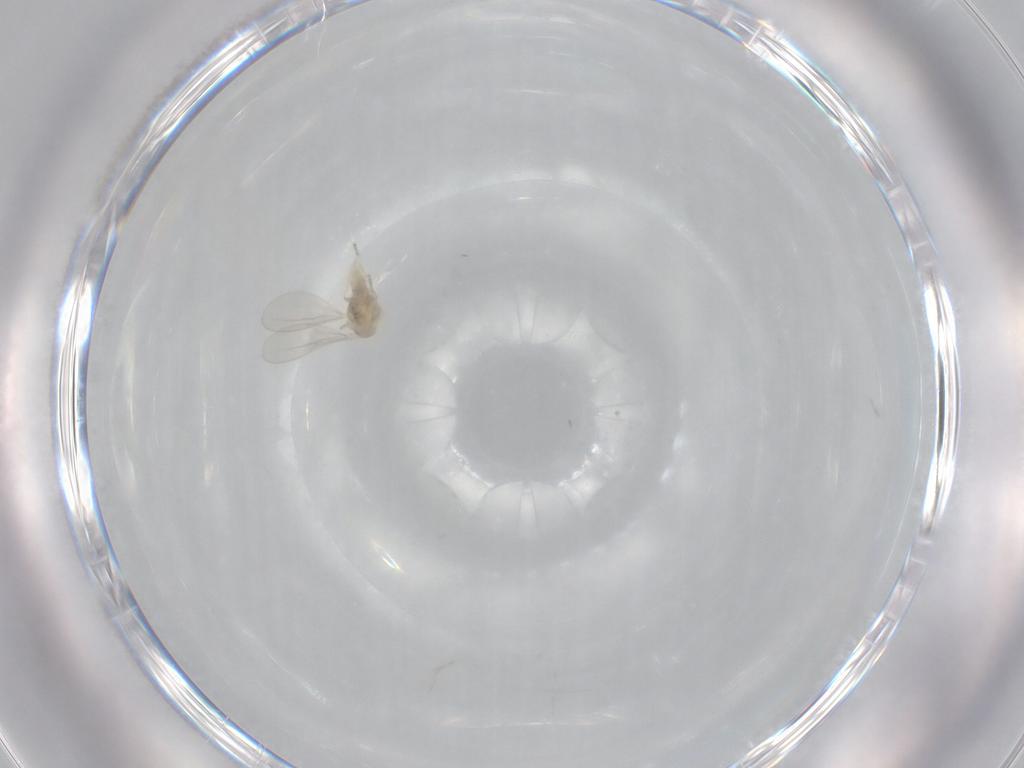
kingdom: Animalia
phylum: Arthropoda
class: Insecta
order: Diptera
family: Cecidomyiidae
